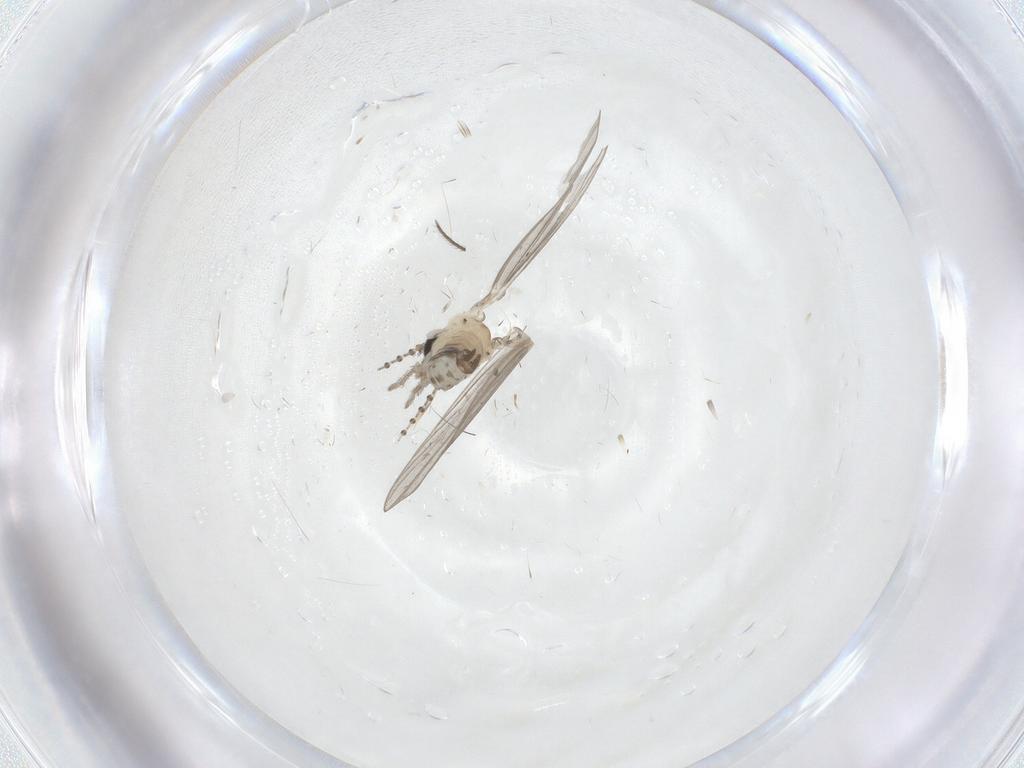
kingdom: Animalia
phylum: Arthropoda
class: Insecta
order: Diptera
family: Psychodidae
